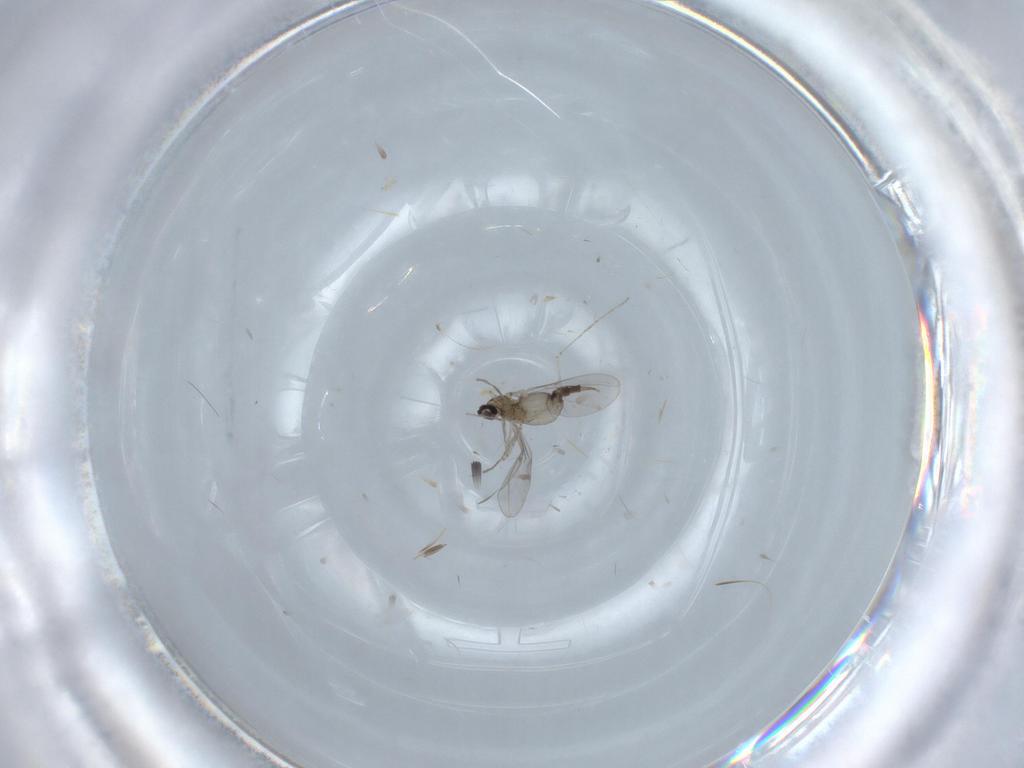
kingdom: Animalia
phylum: Arthropoda
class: Insecta
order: Diptera
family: Cecidomyiidae
